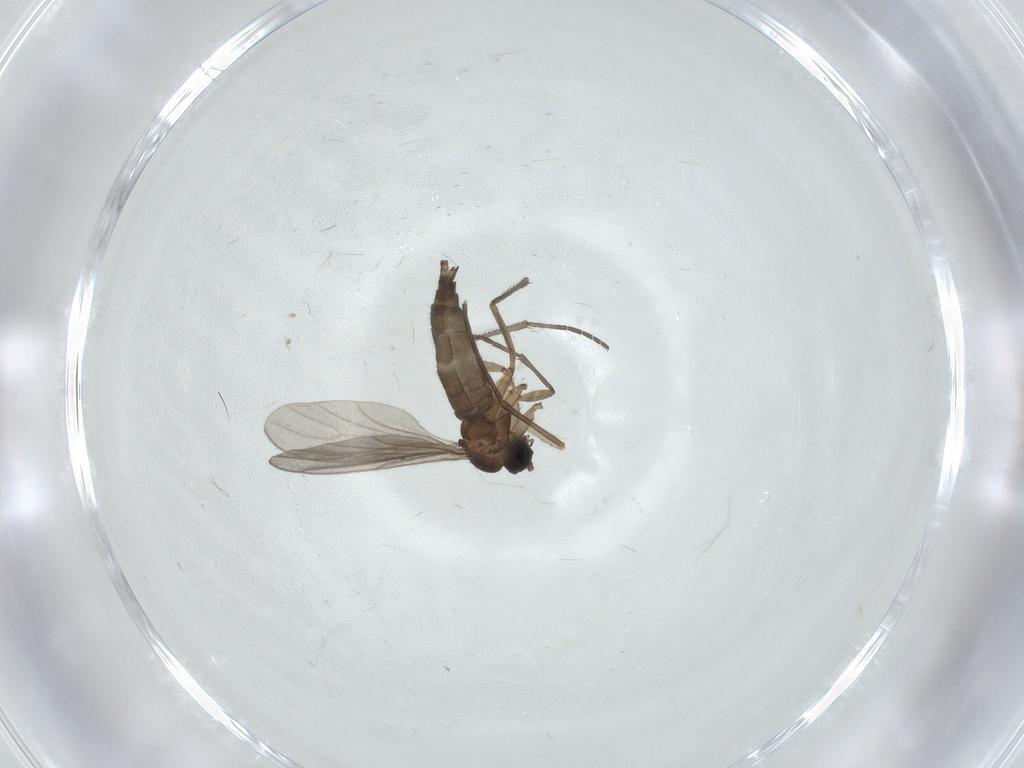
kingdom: Animalia
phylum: Arthropoda
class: Insecta
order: Diptera
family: Sciaridae
